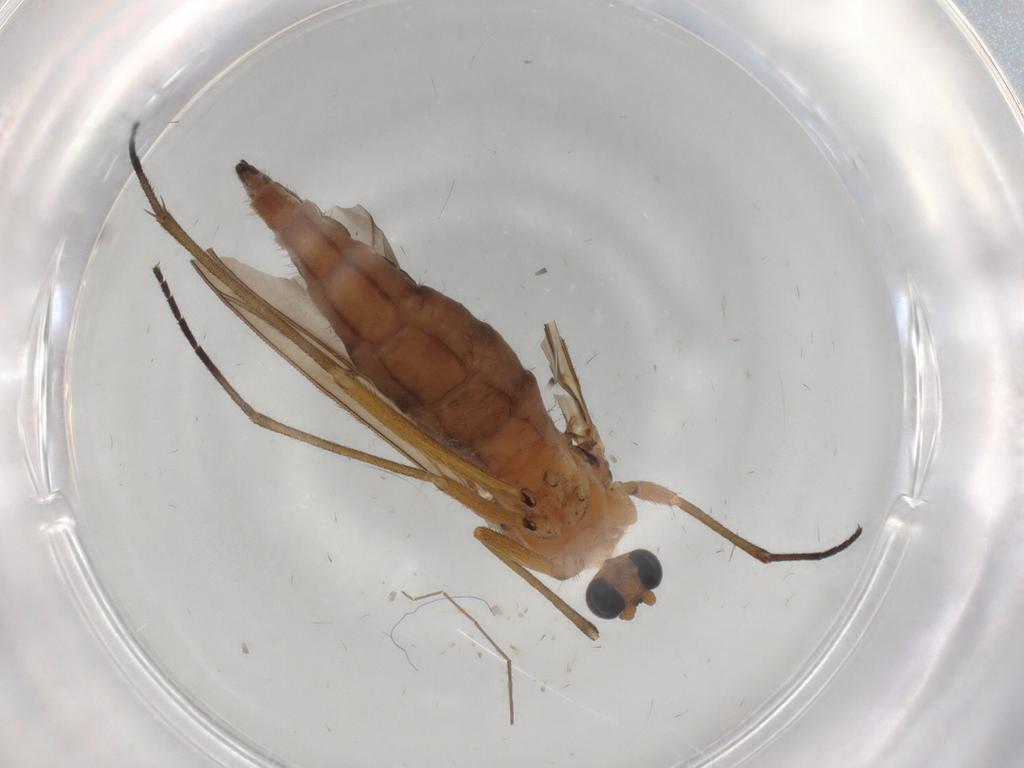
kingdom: Animalia
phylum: Arthropoda
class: Insecta
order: Diptera
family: Sciaridae
